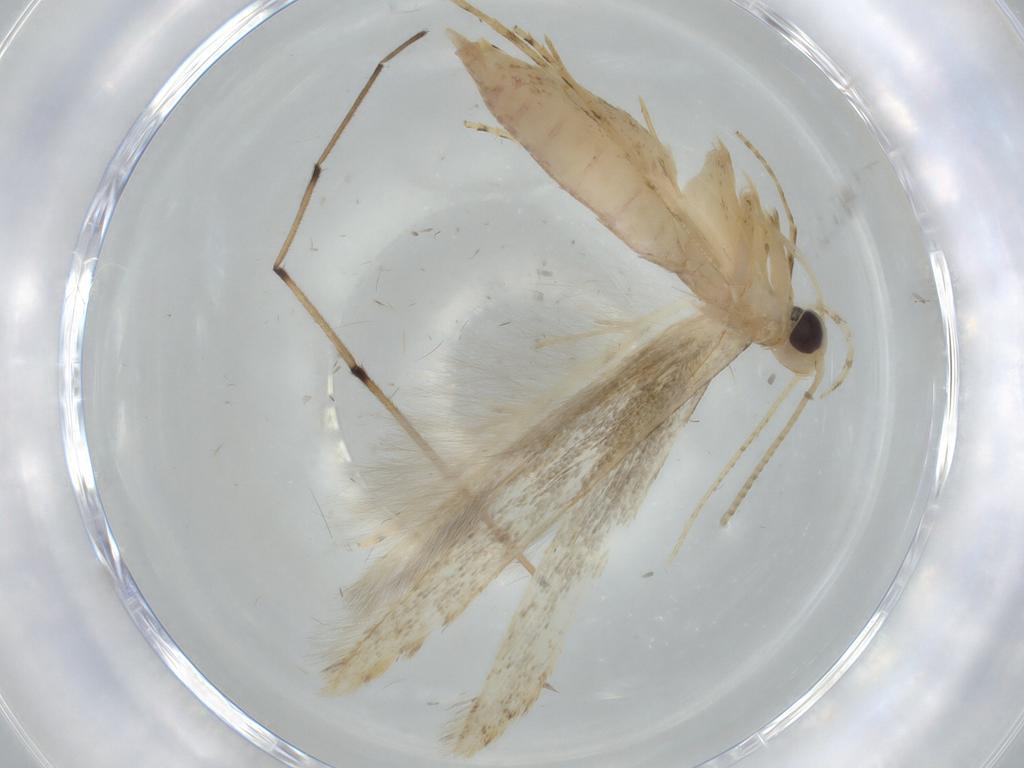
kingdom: Animalia
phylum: Arthropoda
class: Insecta
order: Lepidoptera
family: Batrachedridae
